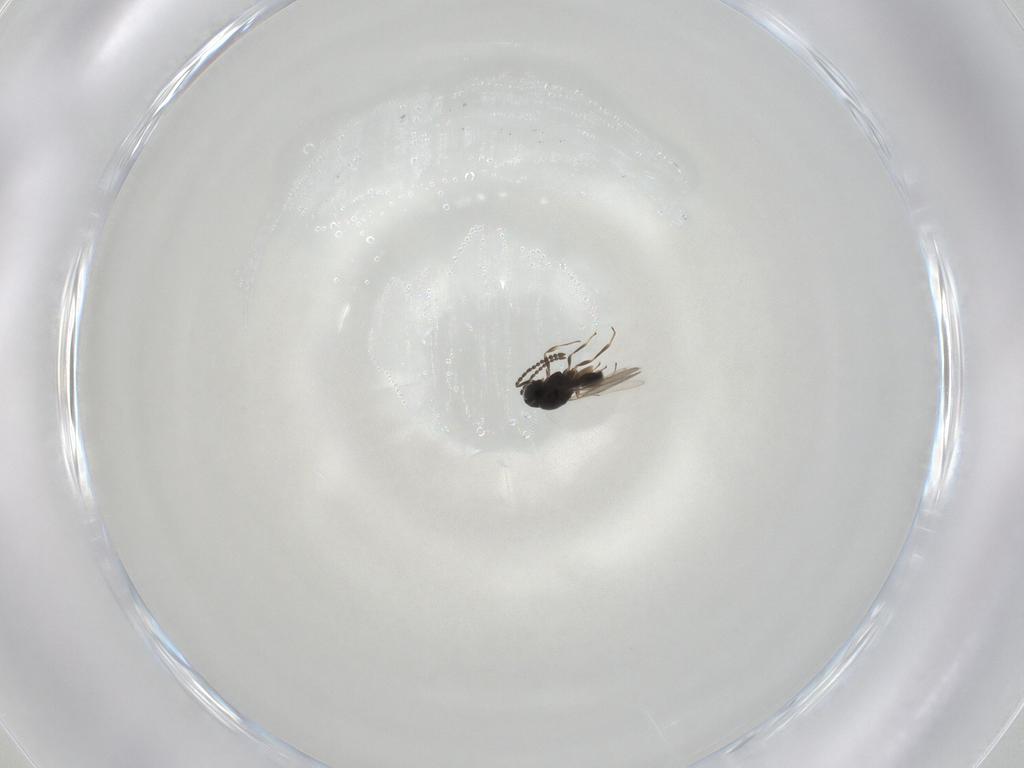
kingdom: Animalia
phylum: Arthropoda
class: Insecta
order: Hymenoptera
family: Scelionidae
